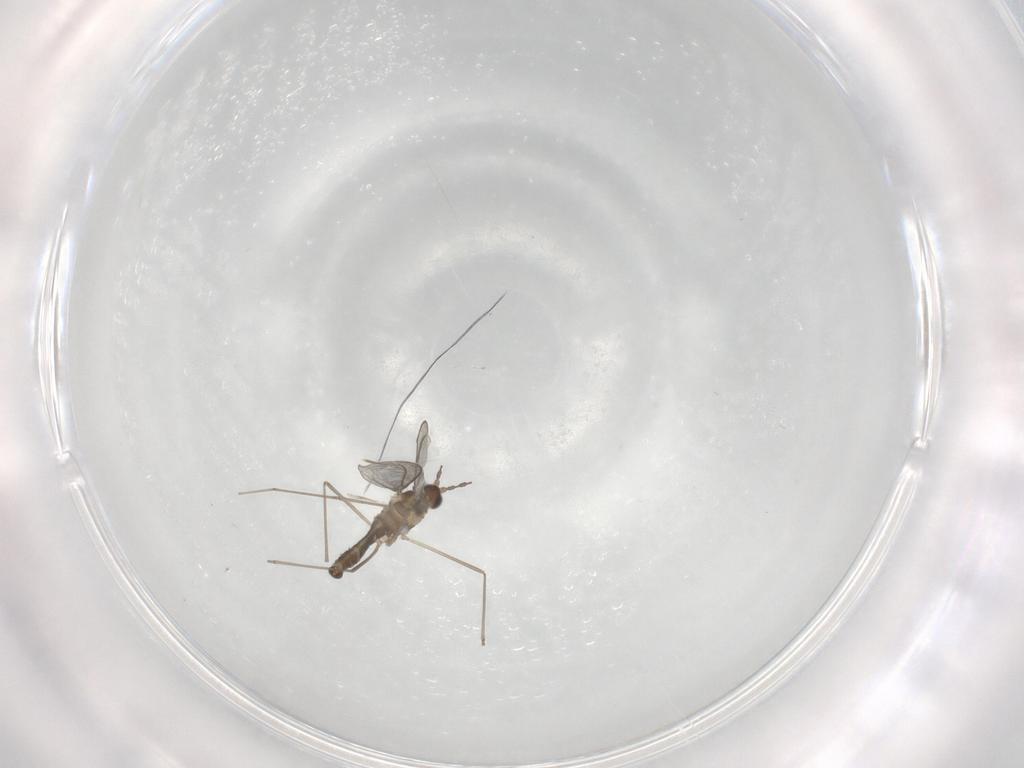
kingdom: Animalia
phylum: Arthropoda
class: Insecta
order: Diptera
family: Cecidomyiidae
